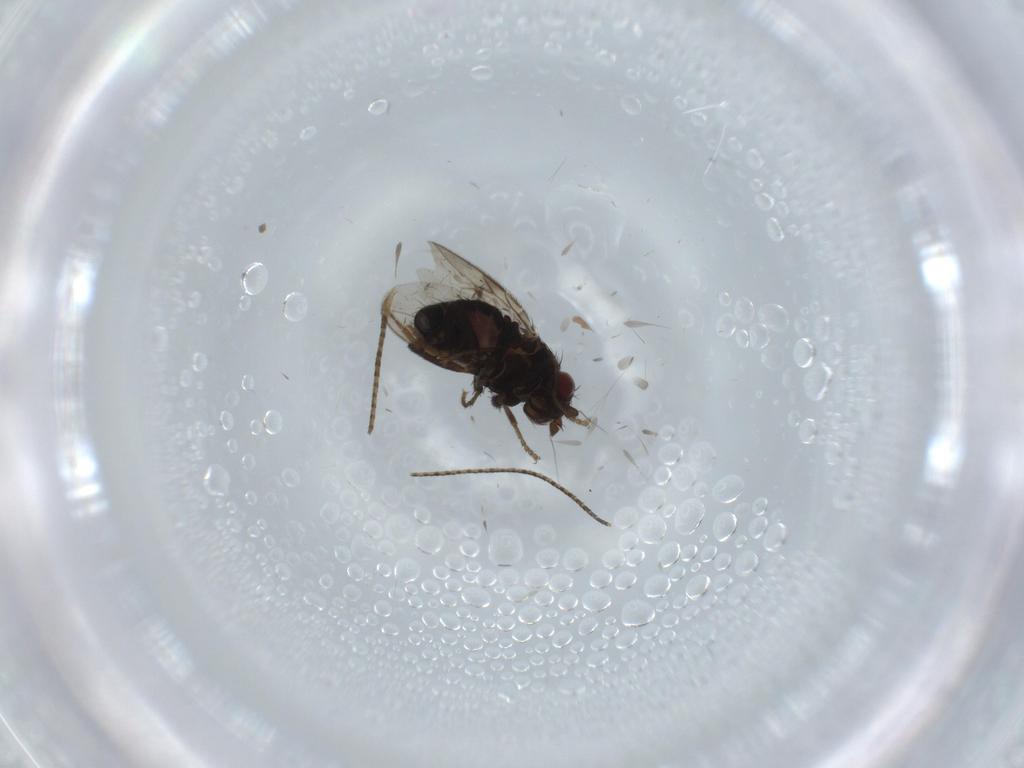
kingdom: Animalia
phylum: Arthropoda
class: Insecta
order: Diptera
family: Sphaeroceridae
